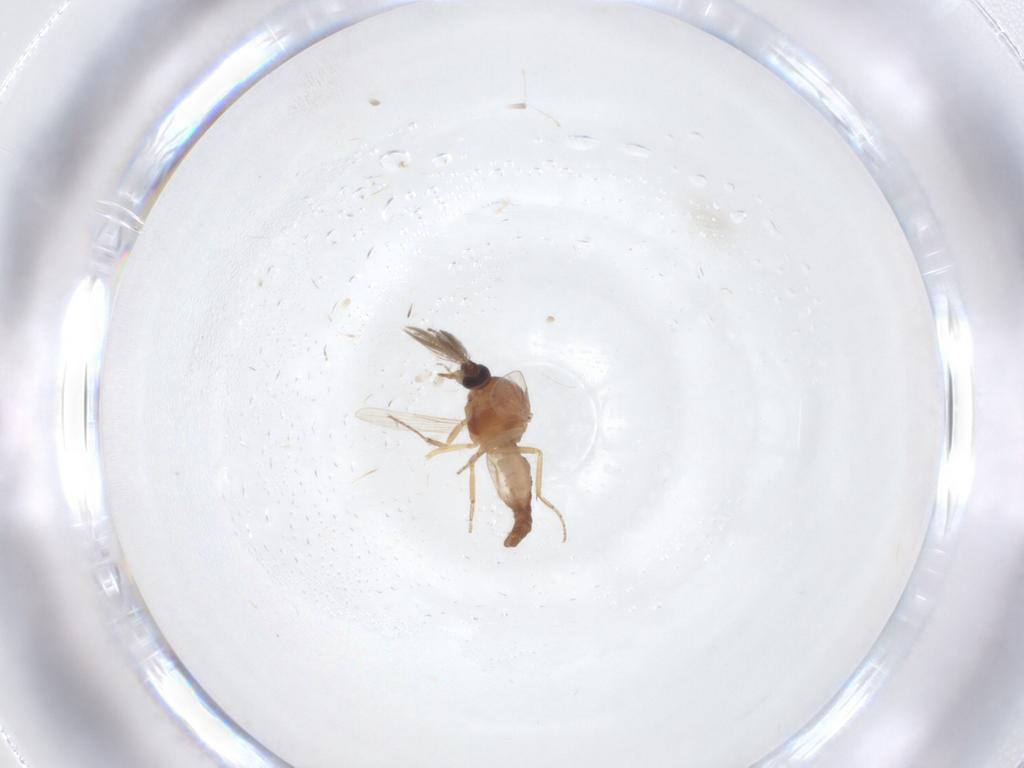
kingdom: Animalia
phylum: Arthropoda
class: Insecta
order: Diptera
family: Ceratopogonidae
